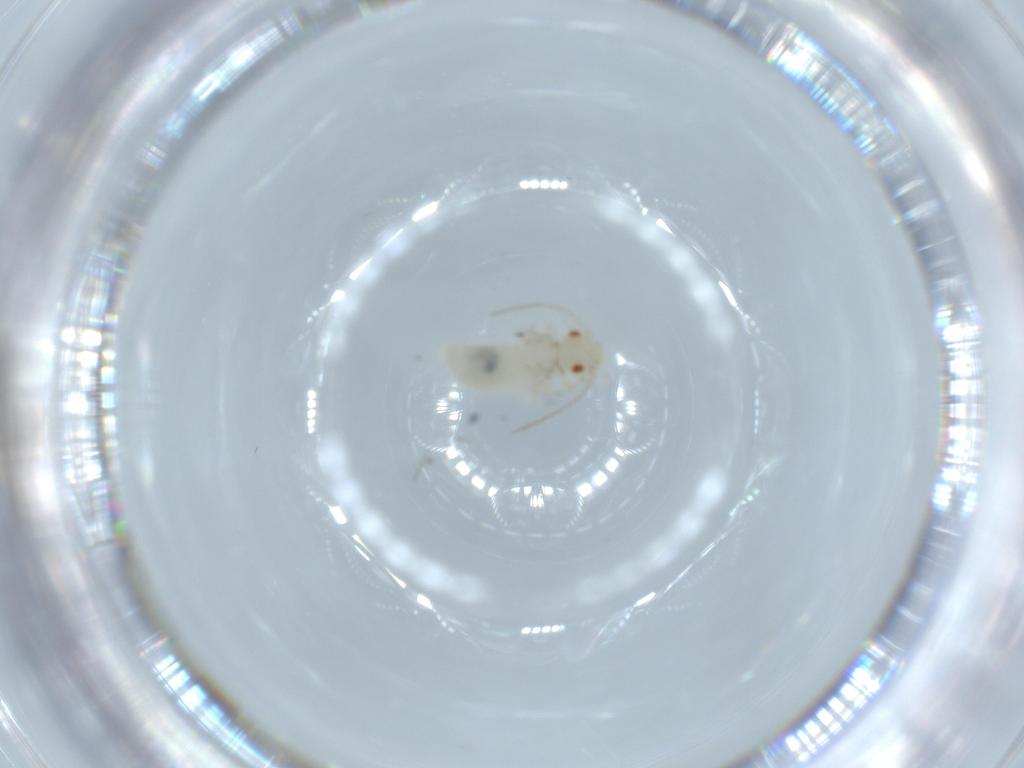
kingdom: Animalia
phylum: Arthropoda
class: Insecta
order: Psocodea
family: Caeciliusidae
